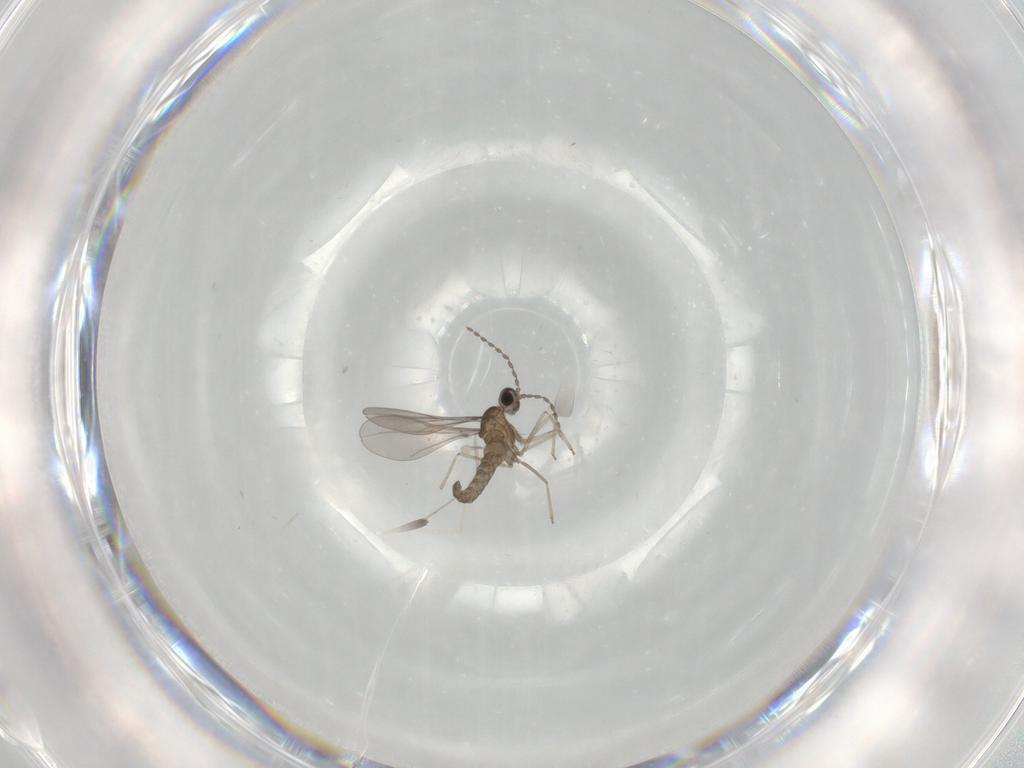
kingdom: Animalia
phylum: Arthropoda
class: Insecta
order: Diptera
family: Cecidomyiidae
